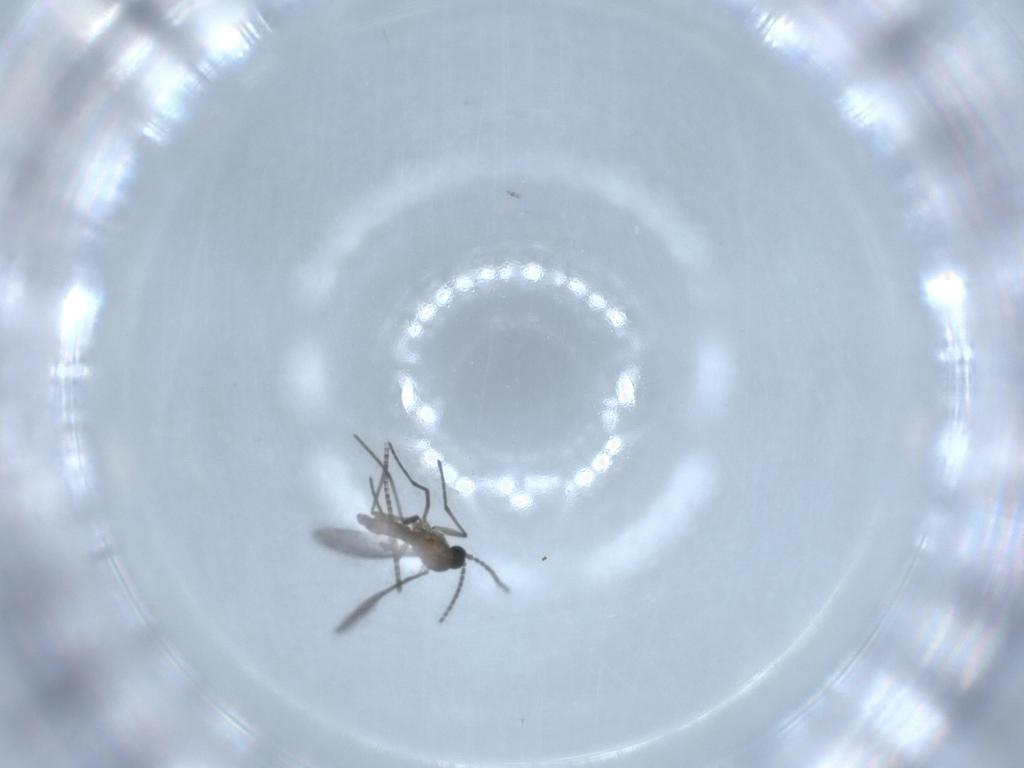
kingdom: Animalia
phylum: Arthropoda
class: Insecta
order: Diptera
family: Sciaridae
